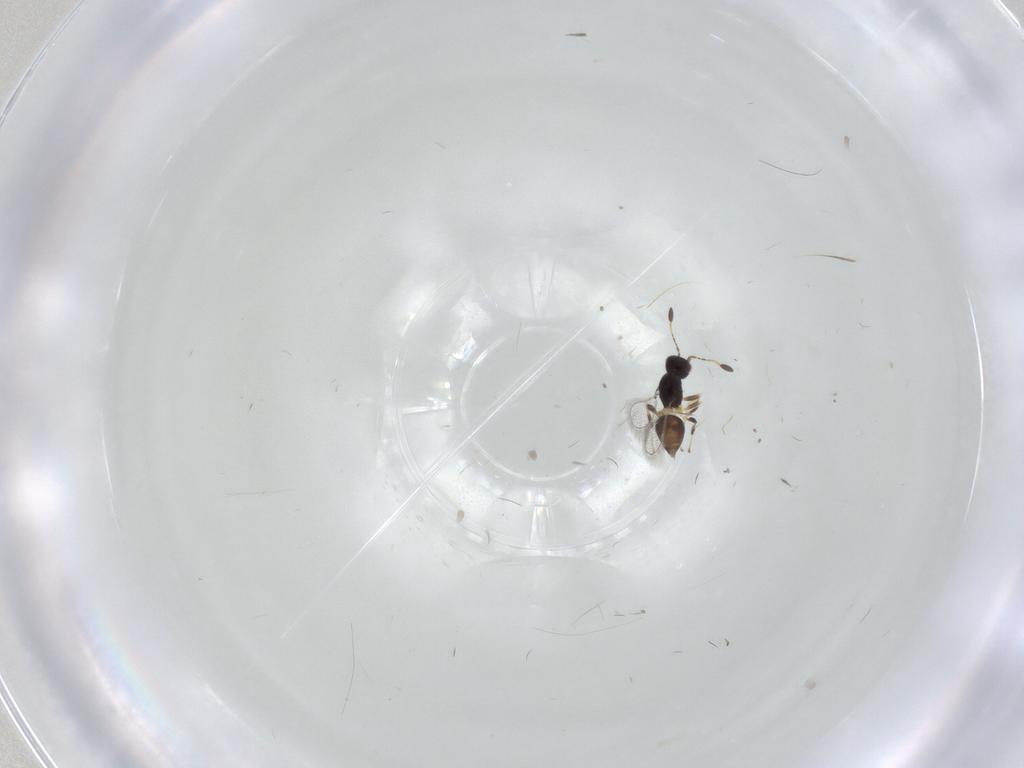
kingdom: Animalia
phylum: Arthropoda
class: Insecta
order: Hymenoptera
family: Mymaridae
